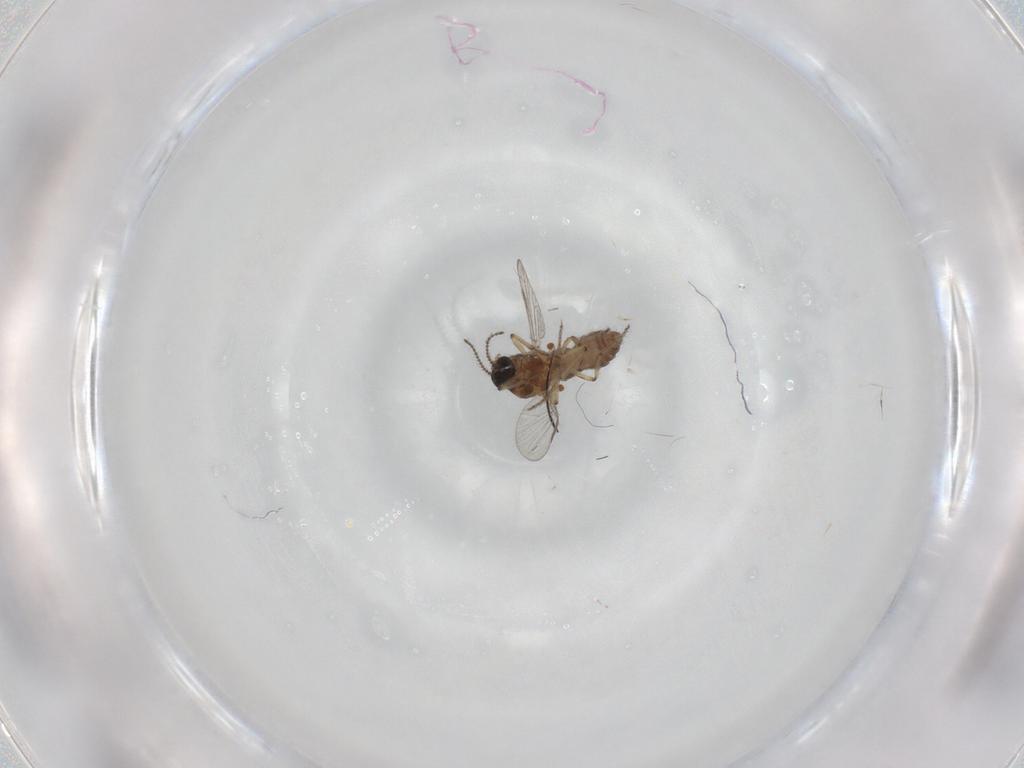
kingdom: Animalia
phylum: Arthropoda
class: Insecta
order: Diptera
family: Ceratopogonidae
